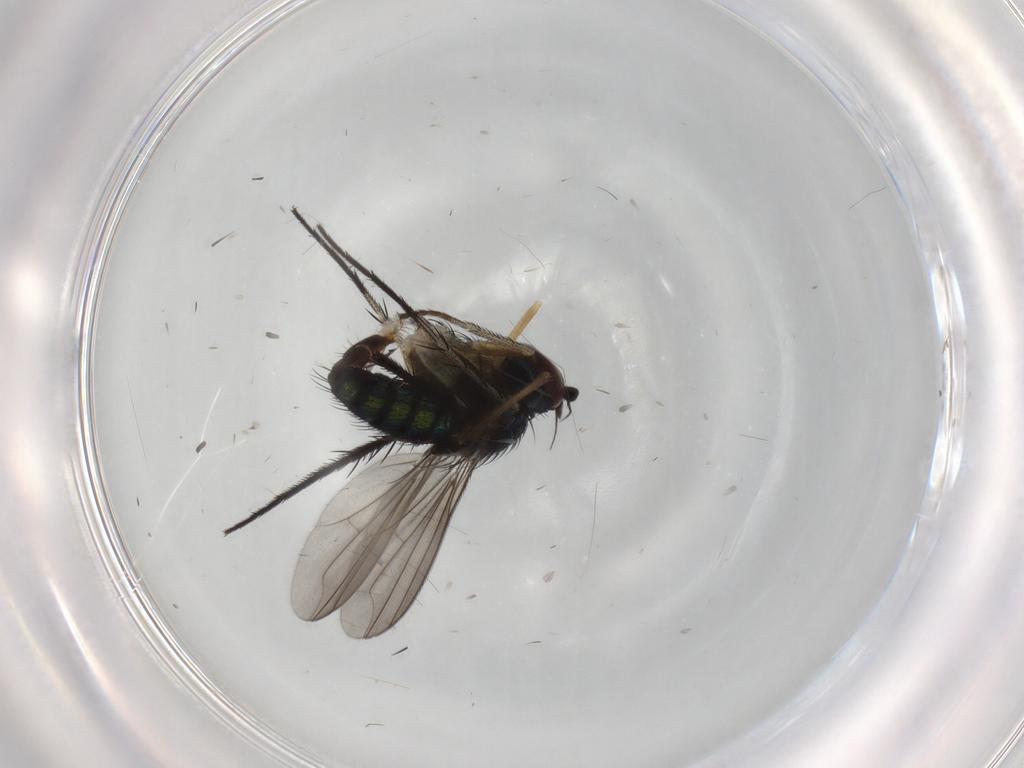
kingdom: Animalia
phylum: Arthropoda
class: Insecta
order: Diptera
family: Dolichopodidae
